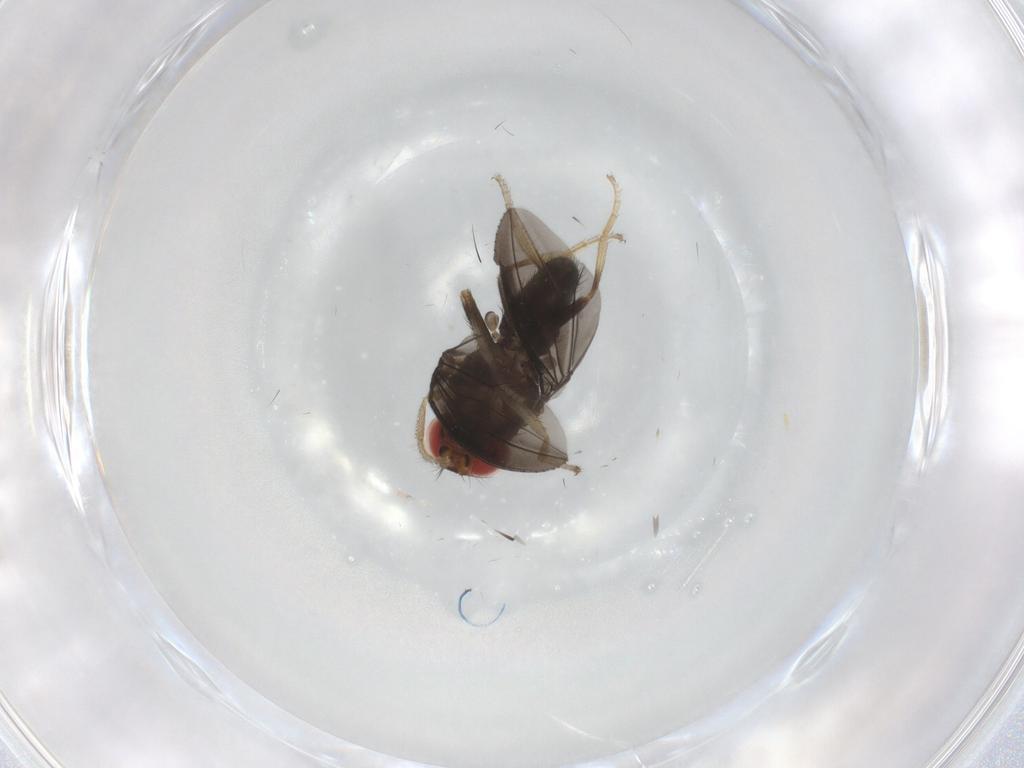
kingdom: Animalia
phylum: Arthropoda
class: Insecta
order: Diptera
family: Drosophilidae
